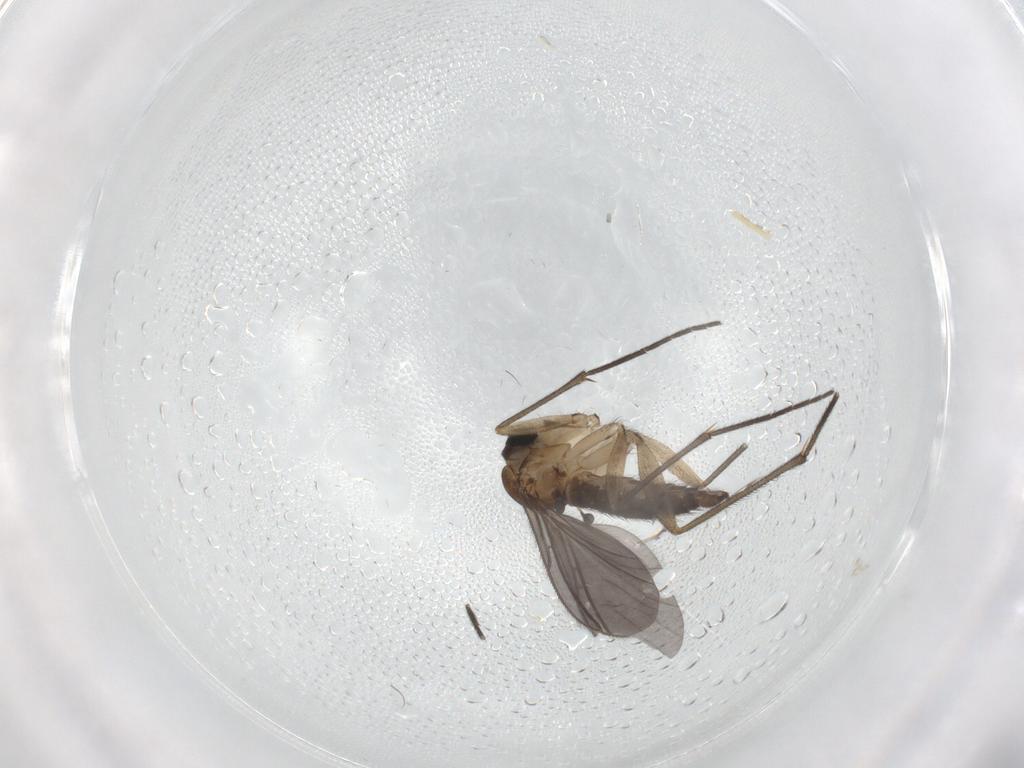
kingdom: Animalia
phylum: Arthropoda
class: Insecta
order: Diptera
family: Sciaridae
